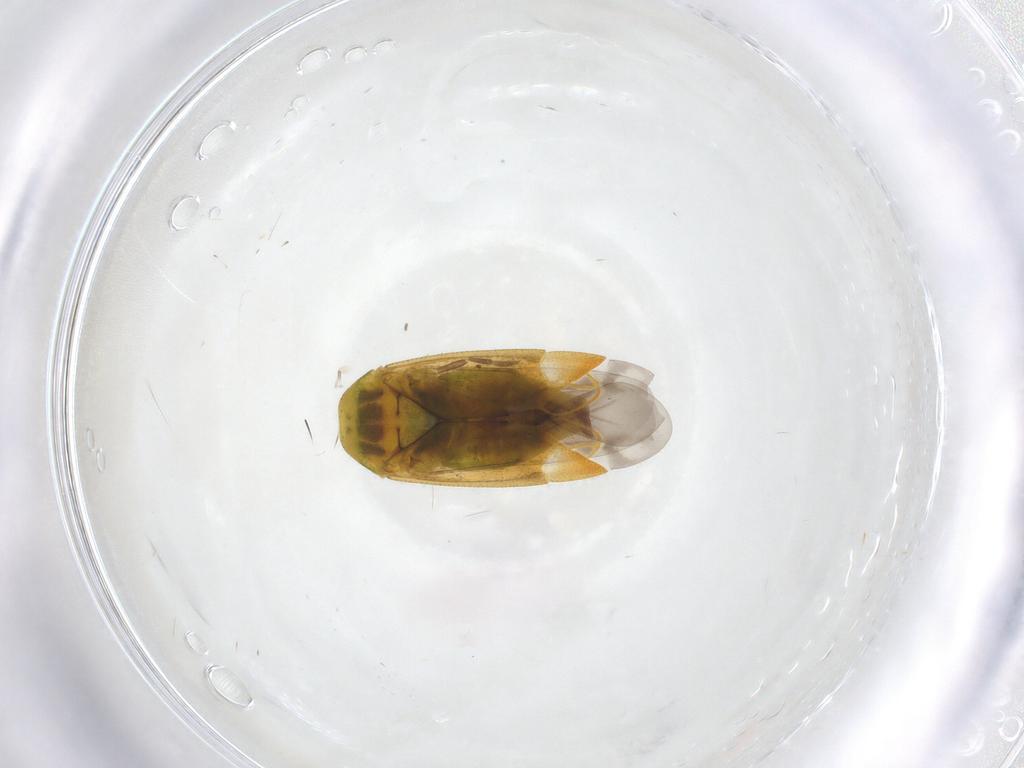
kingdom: Animalia
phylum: Arthropoda
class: Insecta
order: Hemiptera
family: Miridae
